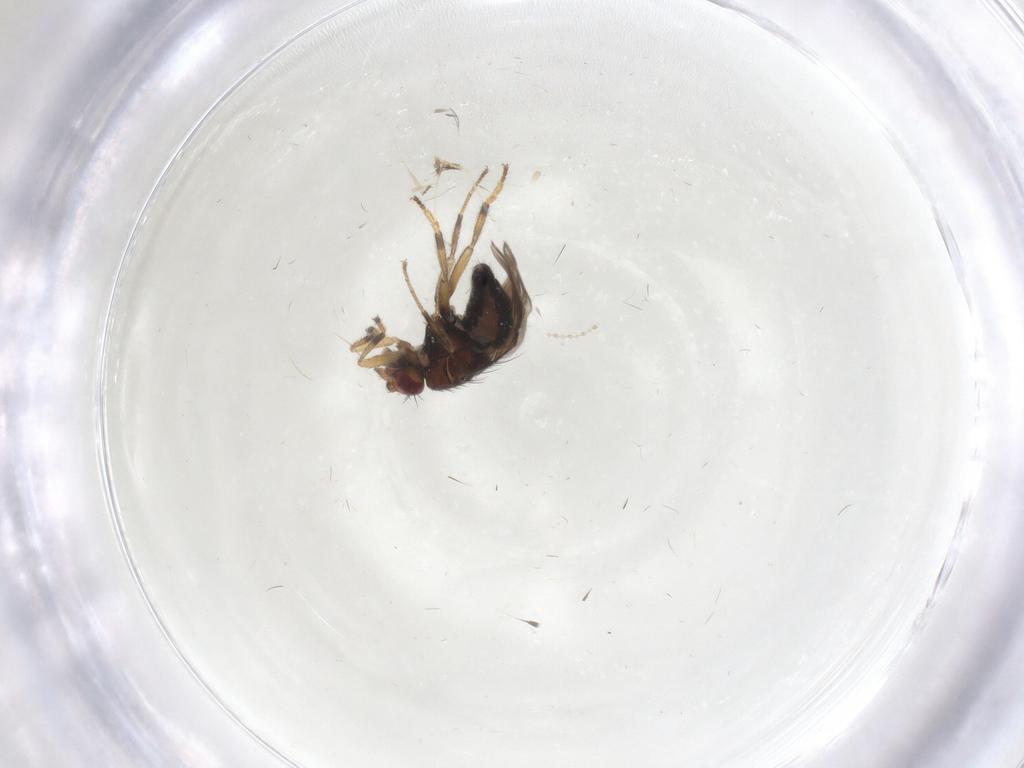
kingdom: Animalia
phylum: Arthropoda
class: Insecta
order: Diptera
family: Sphaeroceridae
